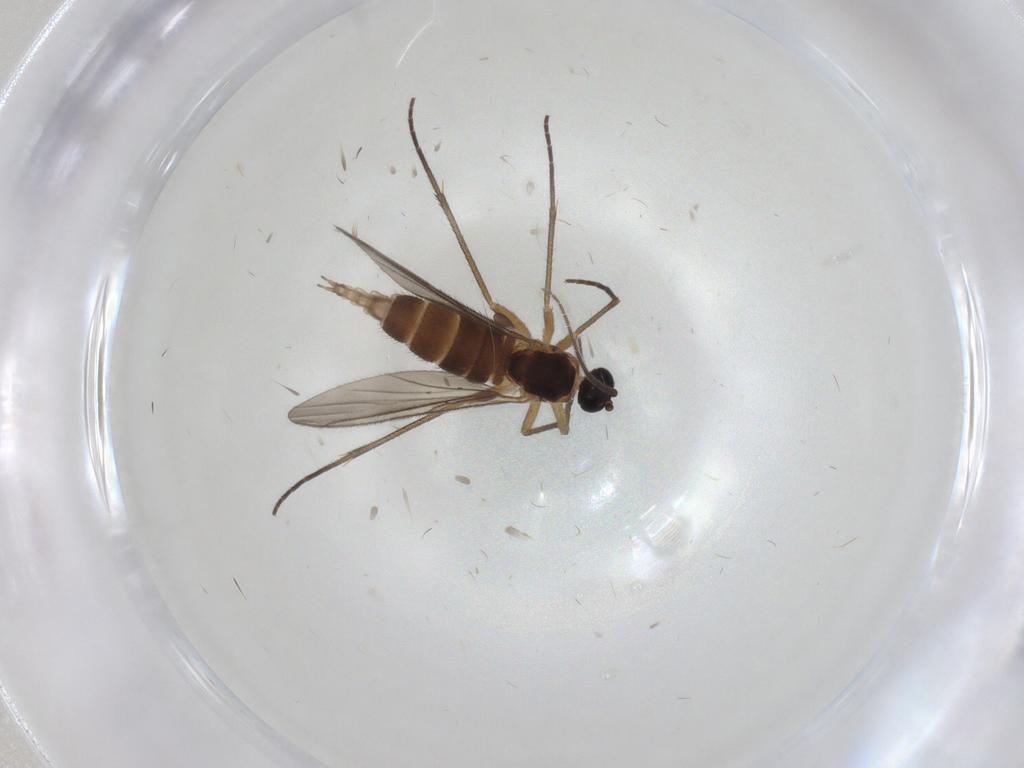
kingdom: Animalia
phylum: Arthropoda
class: Insecta
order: Diptera
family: Sciaridae
